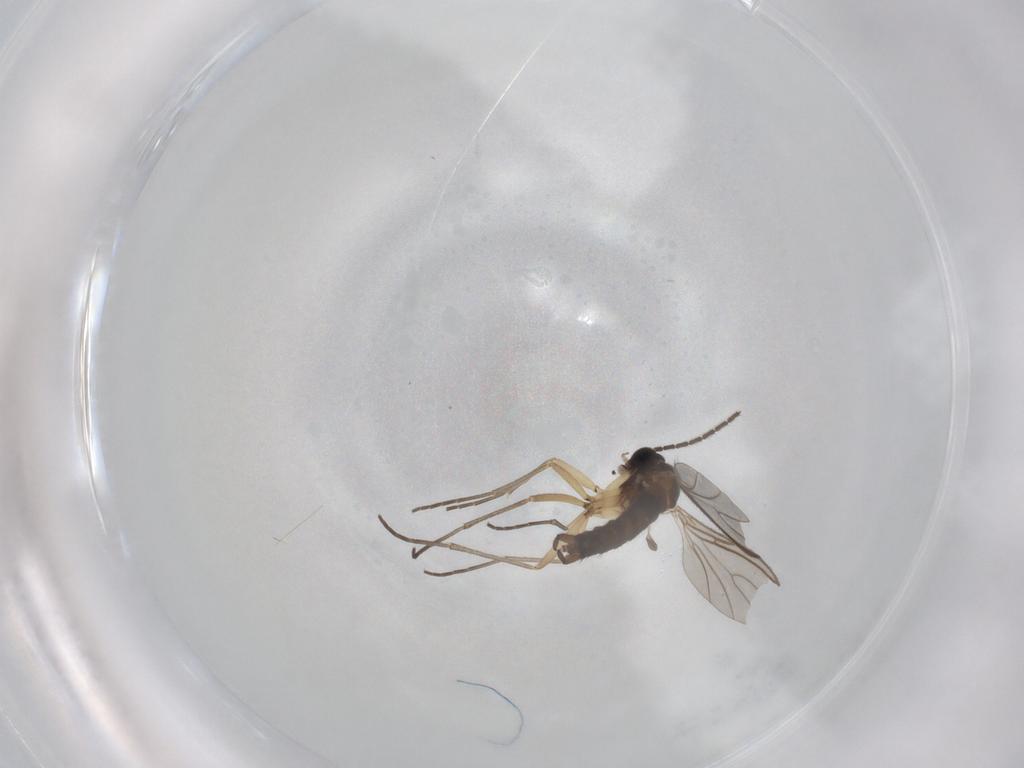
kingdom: Animalia
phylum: Arthropoda
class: Insecta
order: Diptera
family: Sciaridae
